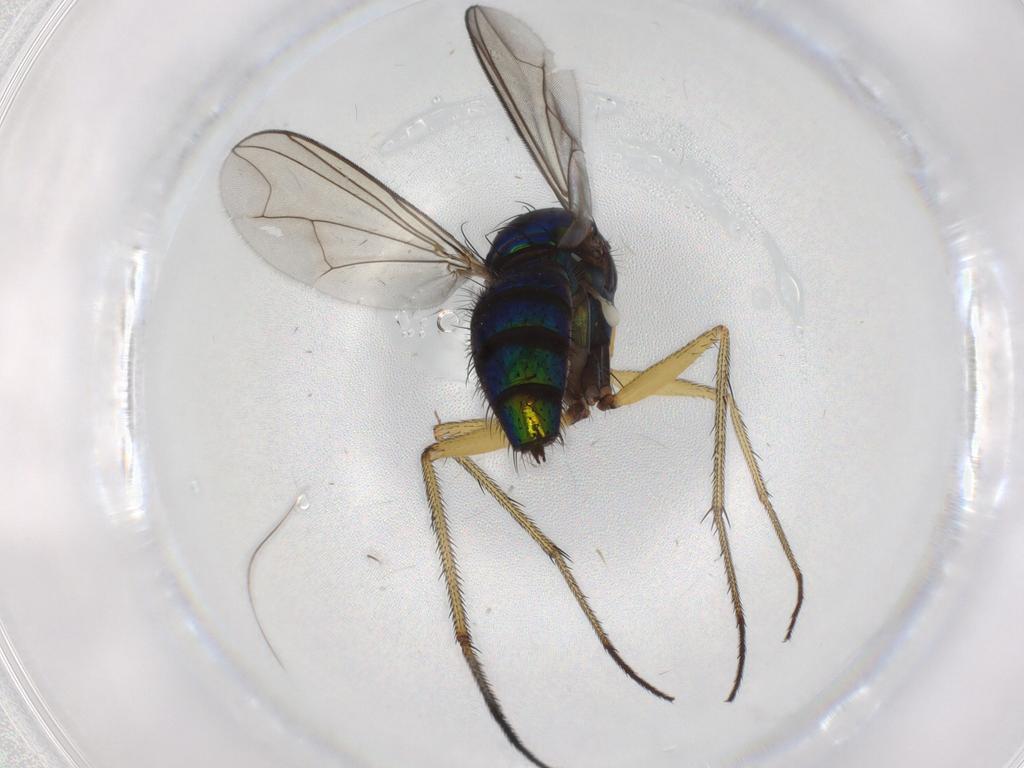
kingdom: Animalia
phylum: Arthropoda
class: Insecta
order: Diptera
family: Dolichopodidae
